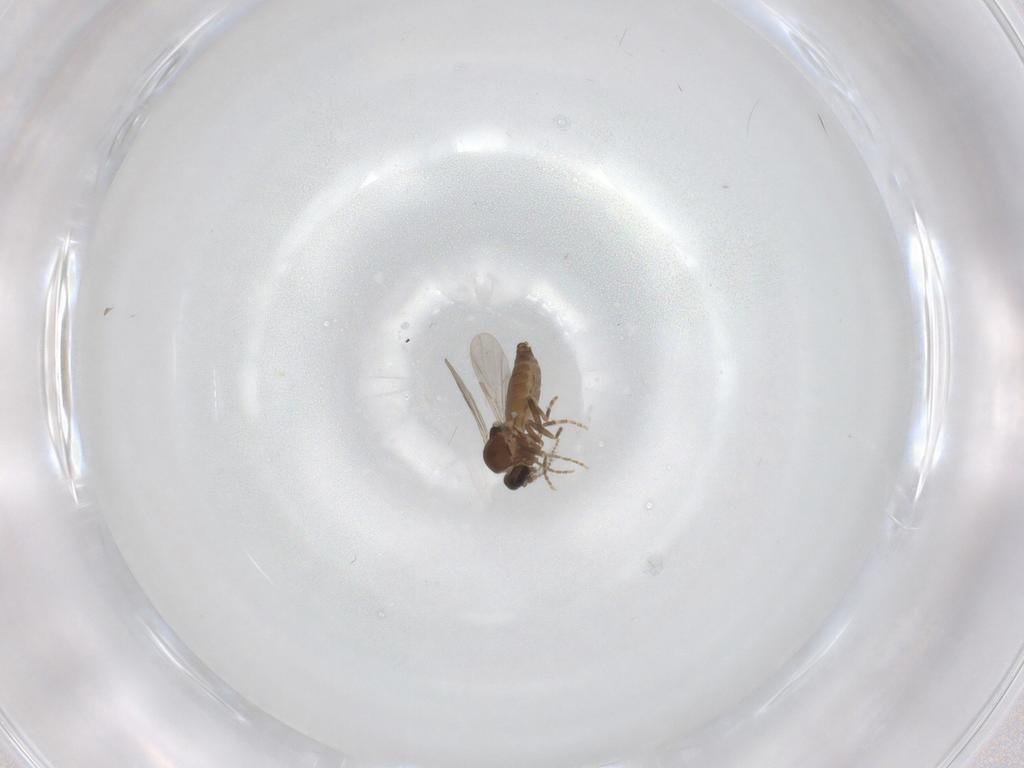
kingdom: Animalia
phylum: Arthropoda
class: Insecta
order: Diptera
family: Ceratopogonidae
